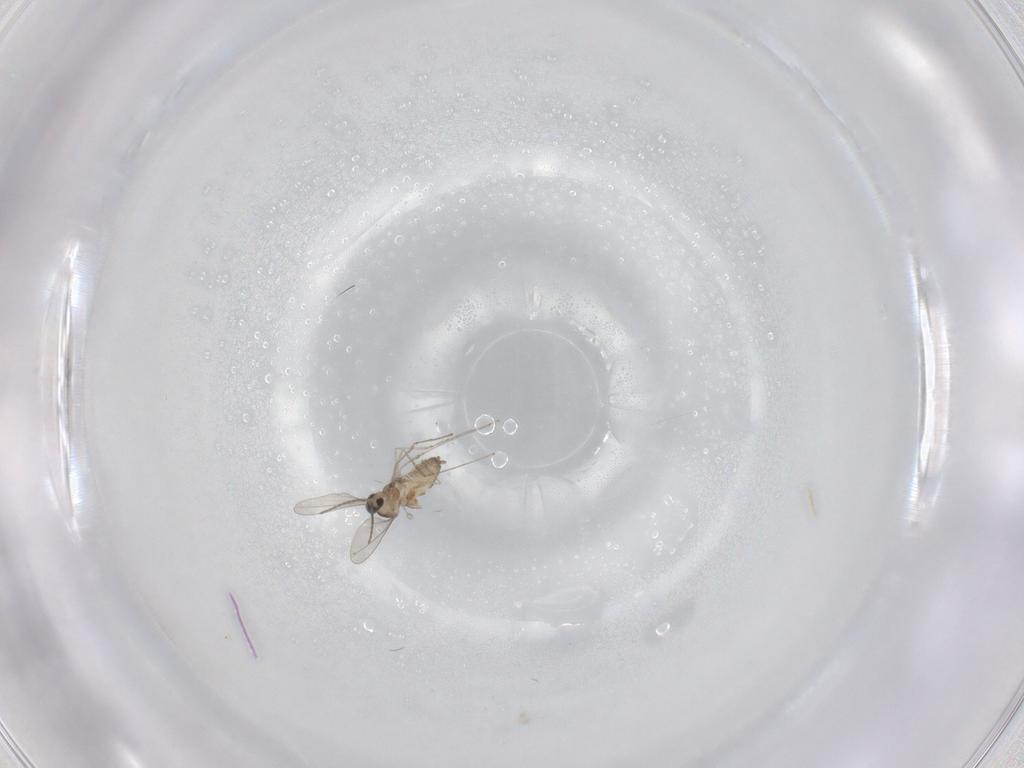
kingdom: Animalia
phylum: Arthropoda
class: Insecta
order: Diptera
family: Cecidomyiidae
